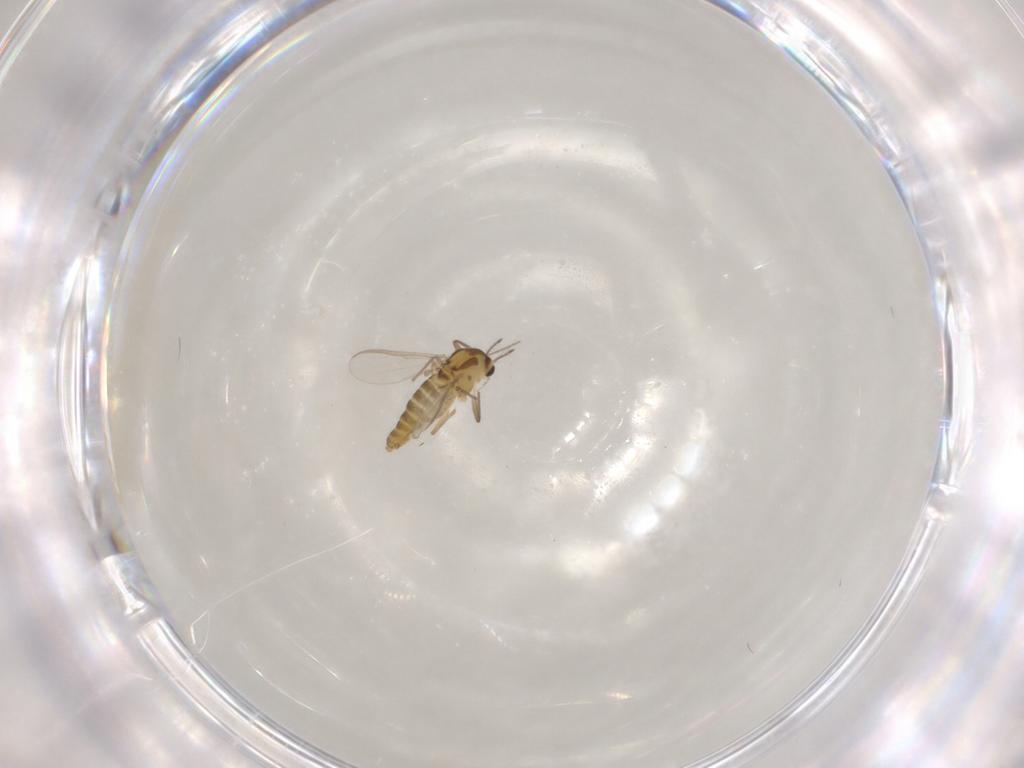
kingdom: Animalia
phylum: Arthropoda
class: Insecta
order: Diptera
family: Chironomidae
